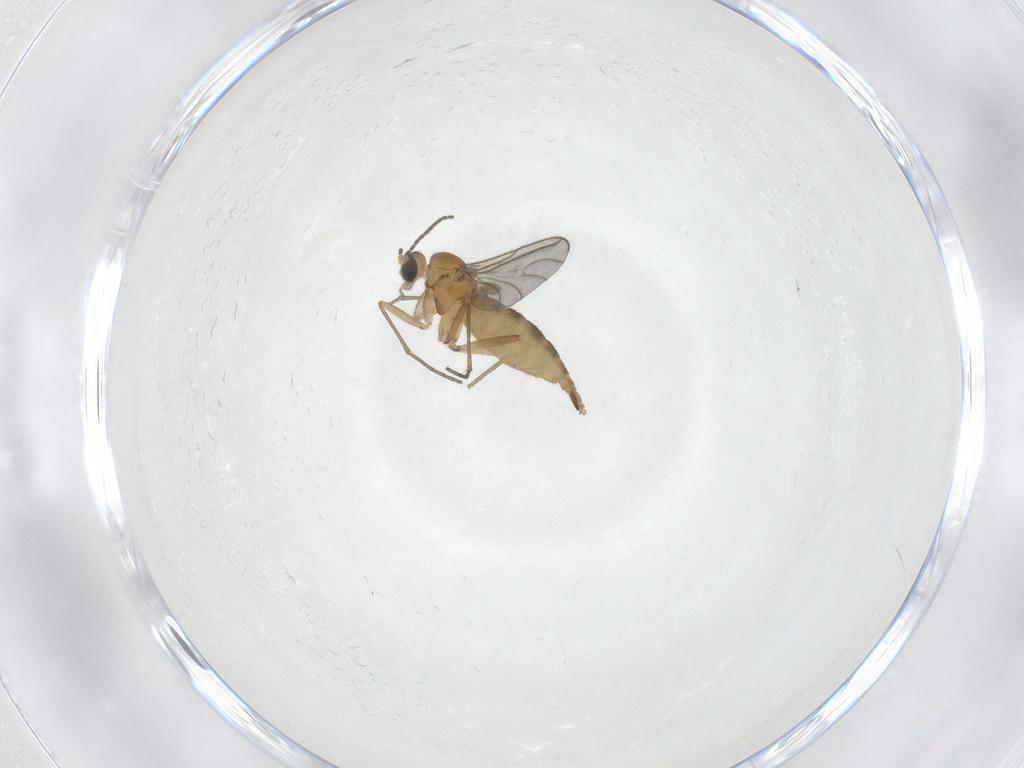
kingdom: Animalia
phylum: Arthropoda
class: Insecta
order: Diptera
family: Sciaridae
